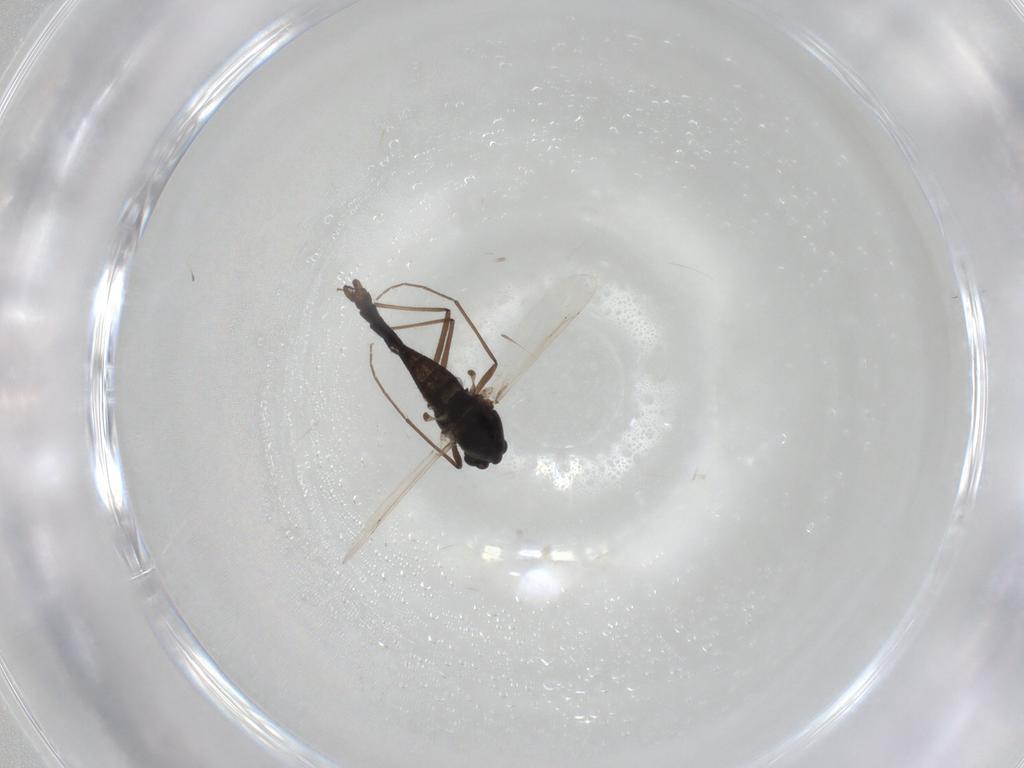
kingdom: Animalia
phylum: Arthropoda
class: Insecta
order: Diptera
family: Chironomidae
